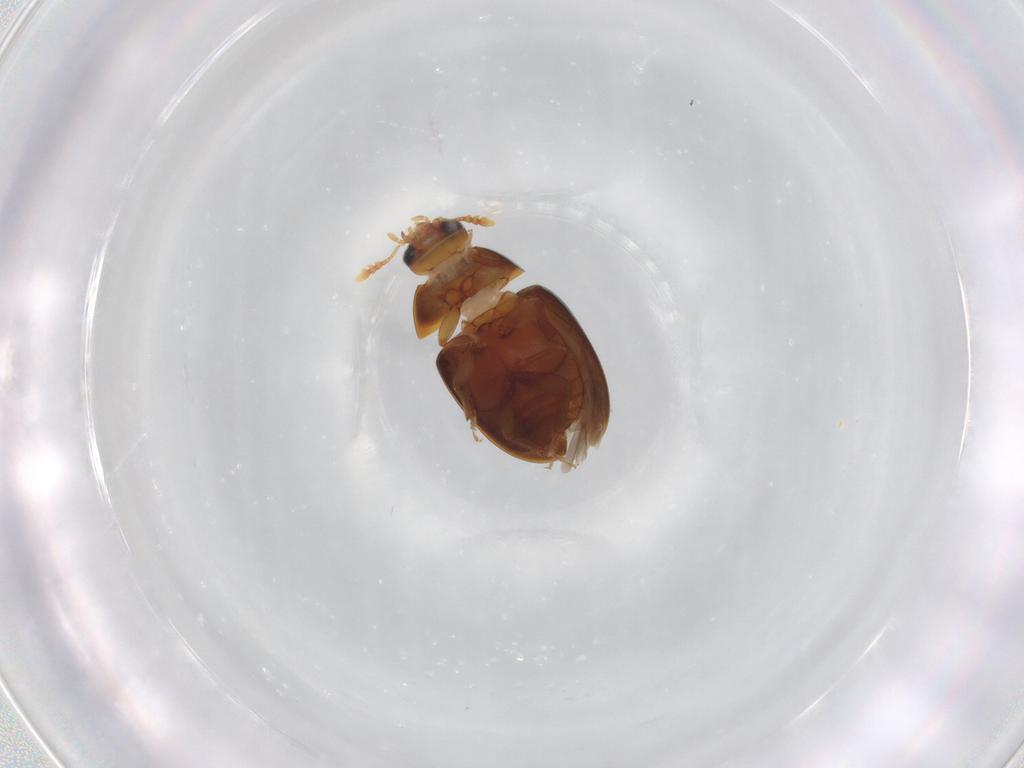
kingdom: Animalia
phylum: Arthropoda
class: Insecta
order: Coleoptera
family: Phalacridae
